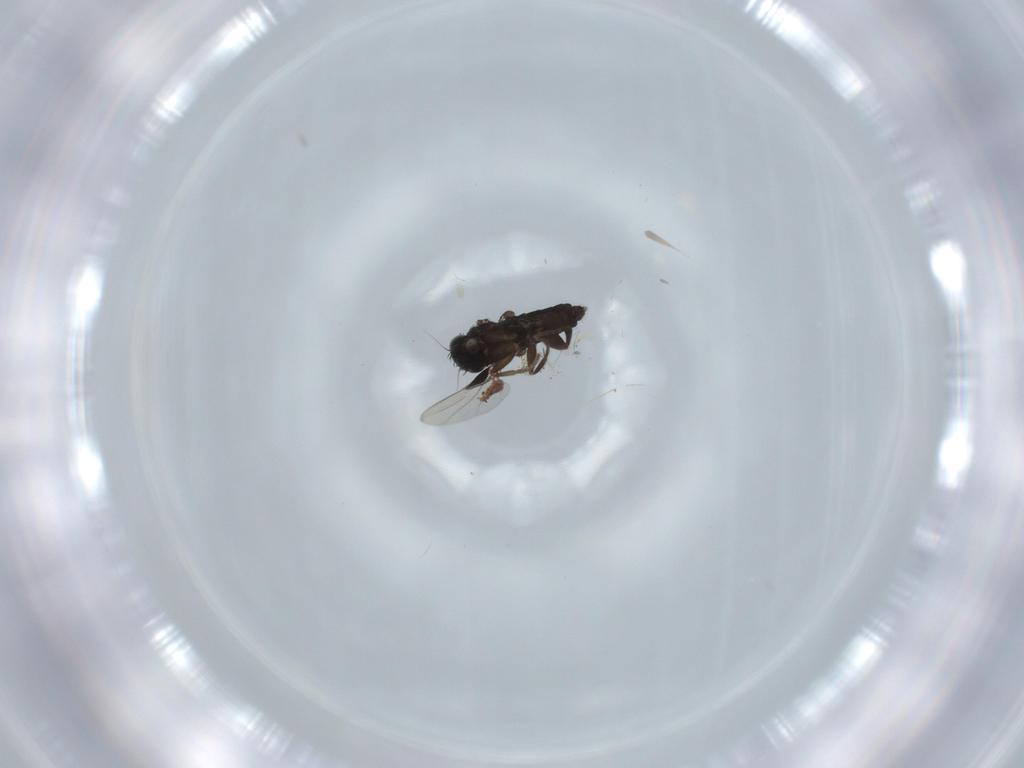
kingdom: Animalia
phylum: Arthropoda
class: Insecta
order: Diptera
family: Phoridae
